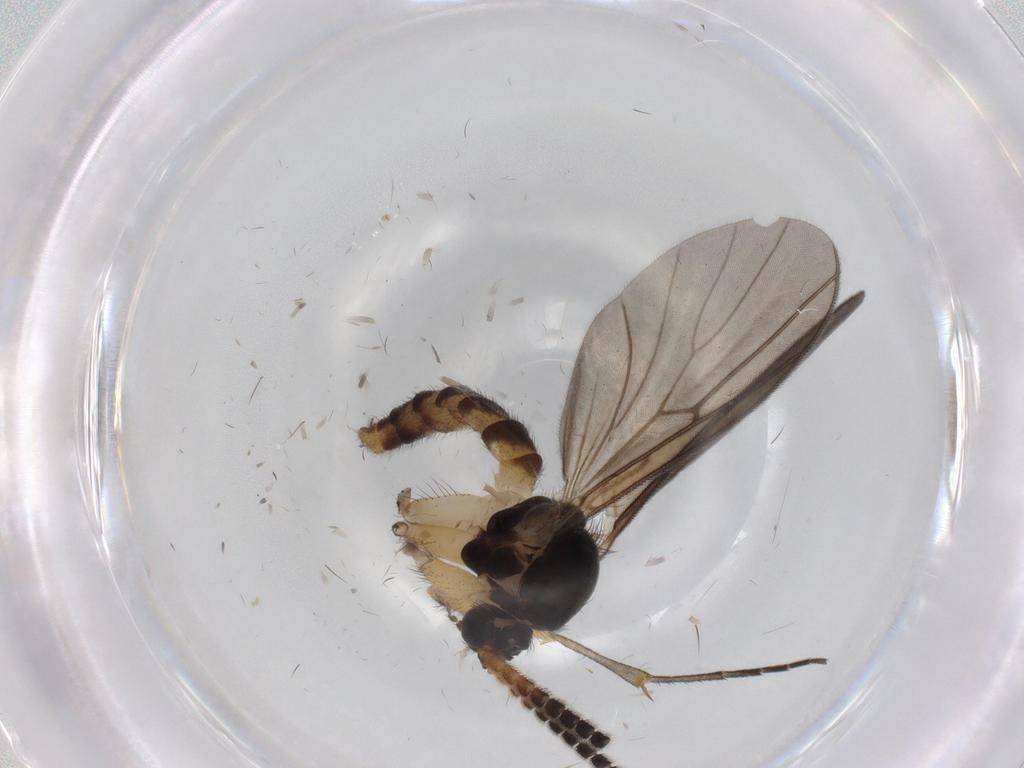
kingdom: Animalia
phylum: Arthropoda
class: Insecta
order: Diptera
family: Mycetophilidae
